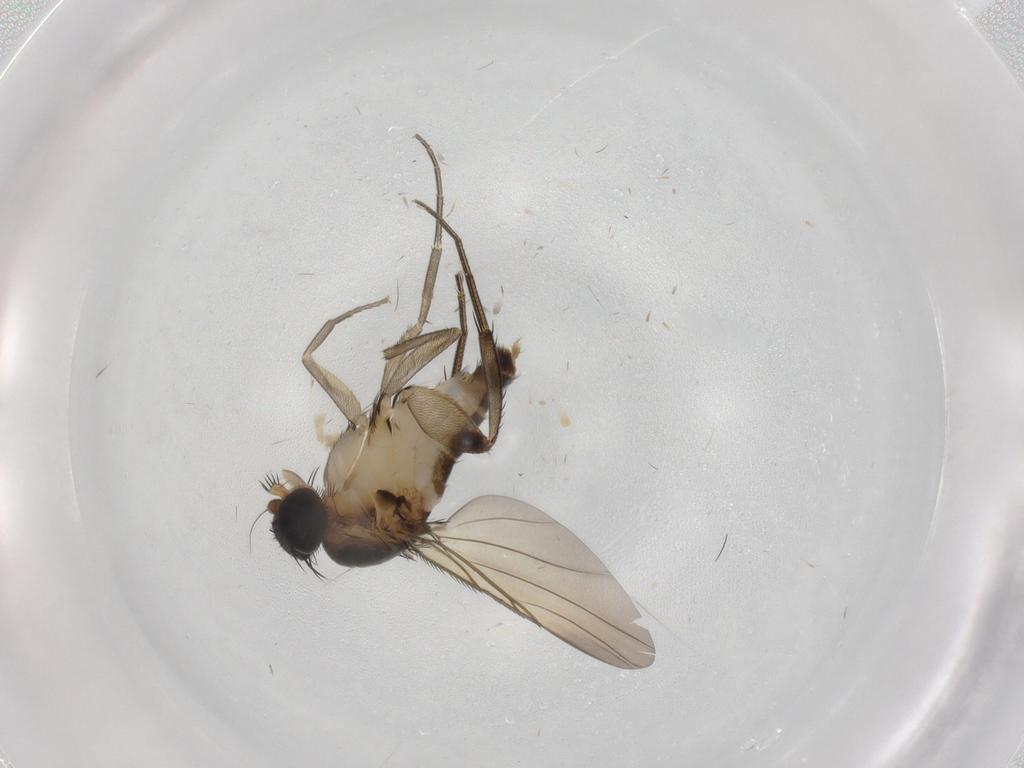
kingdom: Animalia
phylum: Arthropoda
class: Insecta
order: Diptera
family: Phoridae
